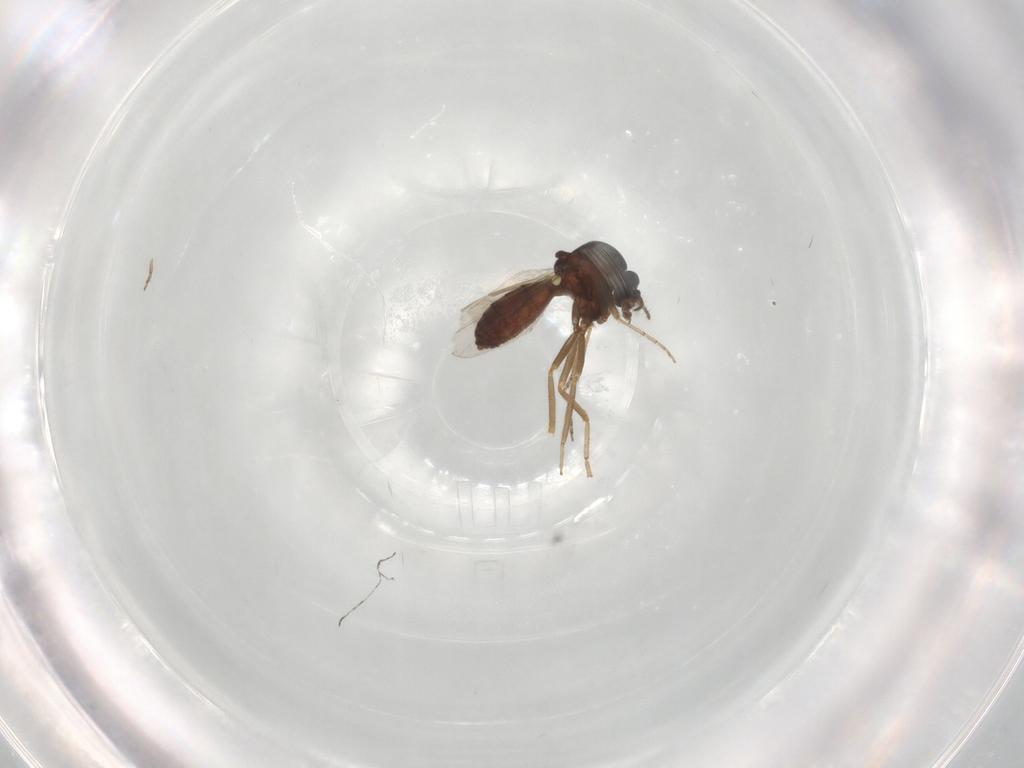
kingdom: Animalia
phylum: Arthropoda
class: Insecta
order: Diptera
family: Ceratopogonidae
